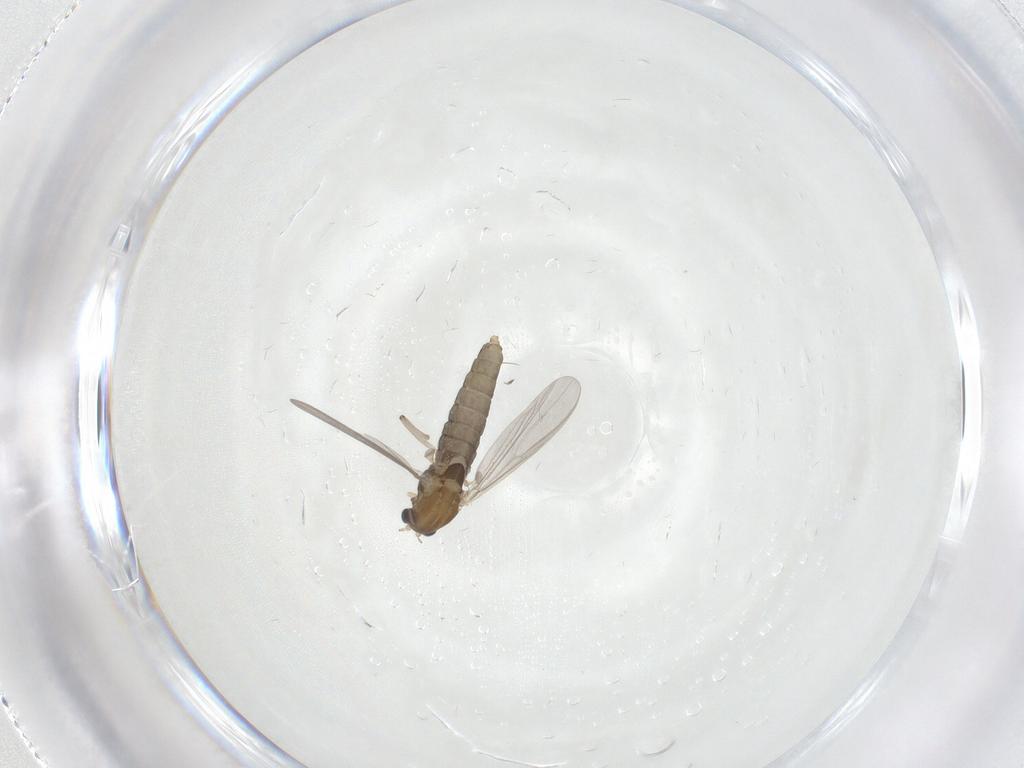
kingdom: Animalia
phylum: Arthropoda
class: Insecta
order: Diptera
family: Chironomidae
